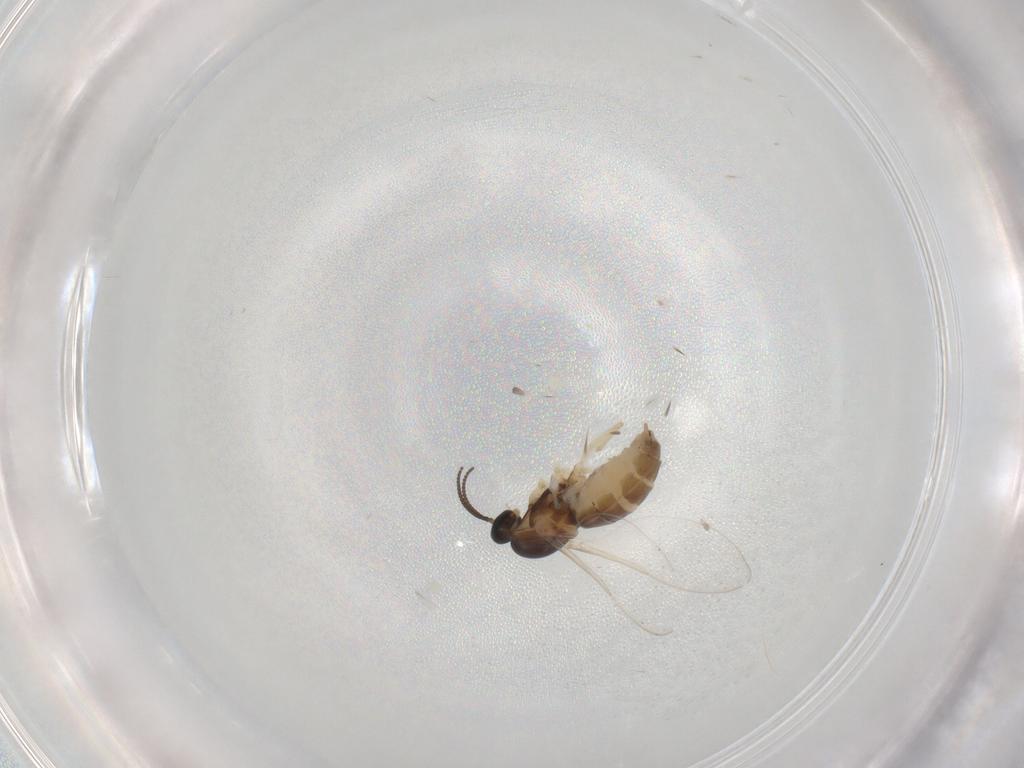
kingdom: Animalia
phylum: Arthropoda
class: Insecta
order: Diptera
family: Cecidomyiidae
